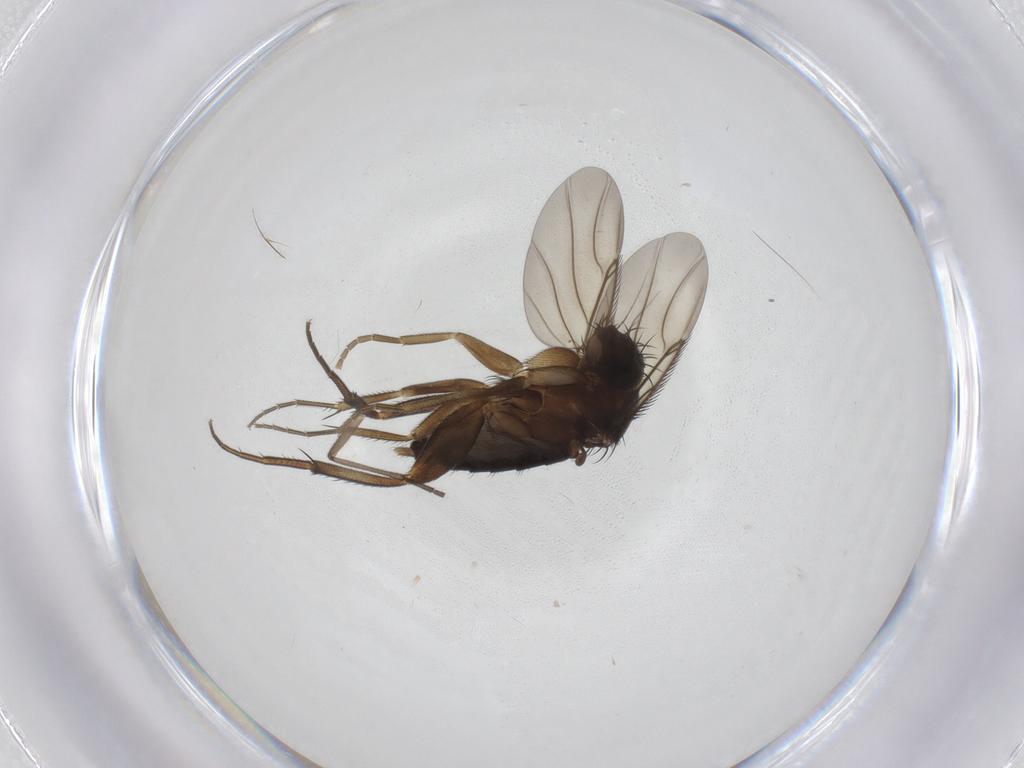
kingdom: Animalia
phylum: Arthropoda
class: Insecta
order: Diptera
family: Phoridae
